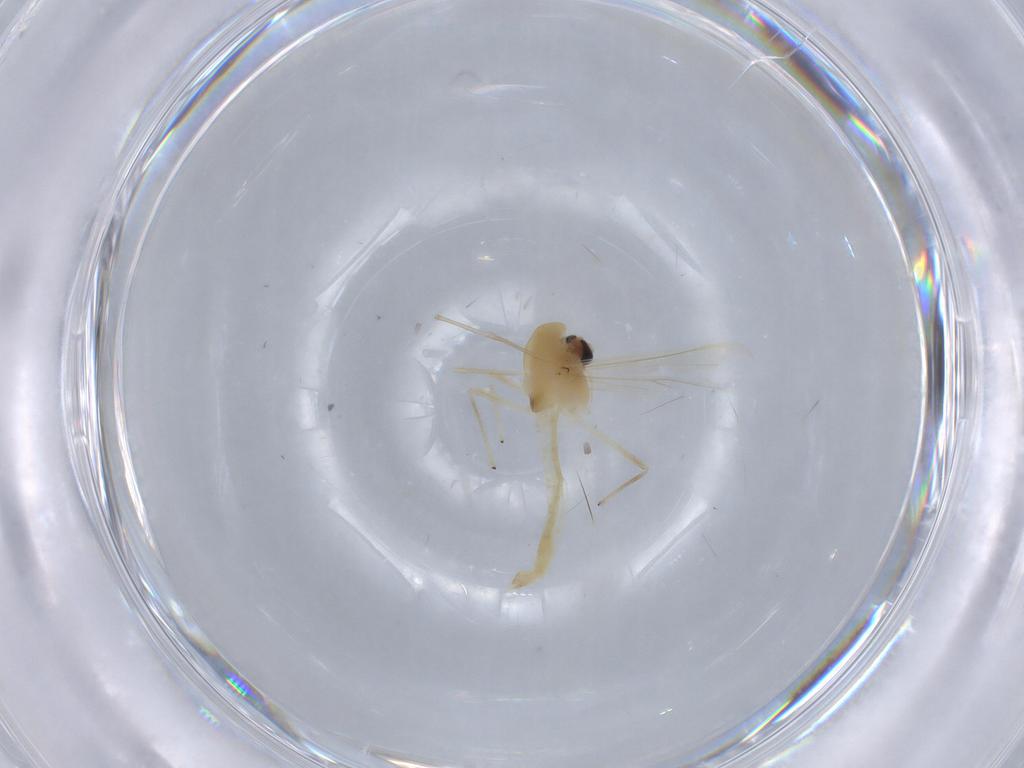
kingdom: Animalia
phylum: Arthropoda
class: Insecta
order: Diptera
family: Chironomidae
